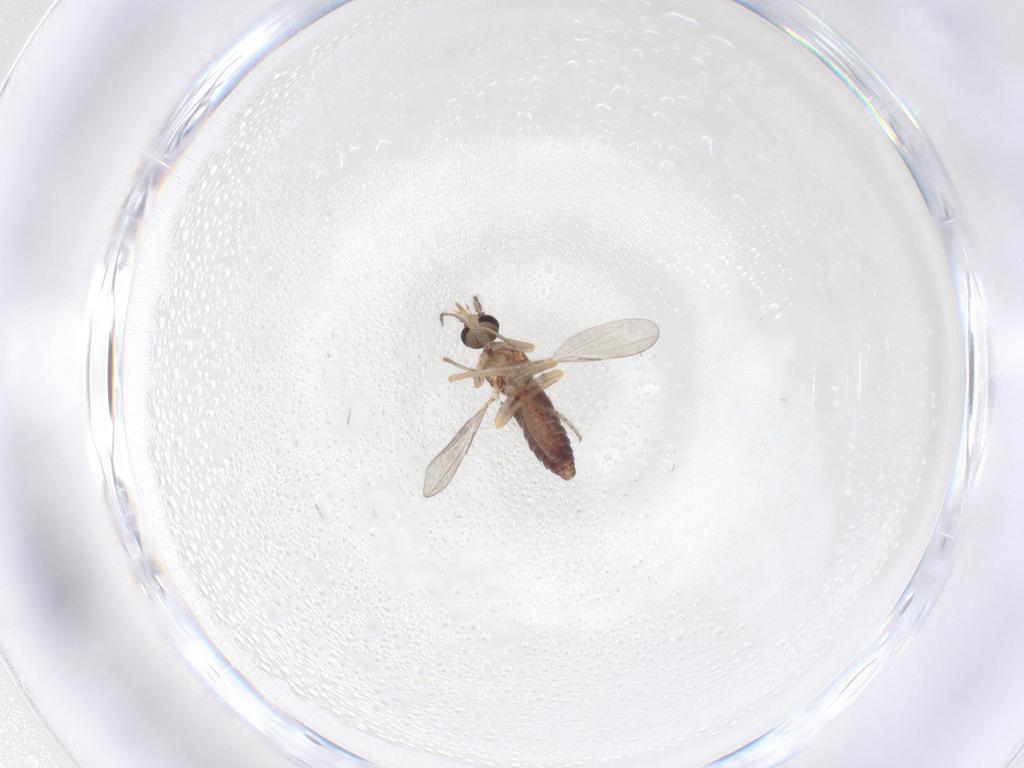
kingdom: Animalia
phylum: Arthropoda
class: Insecta
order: Diptera
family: Ceratopogonidae
